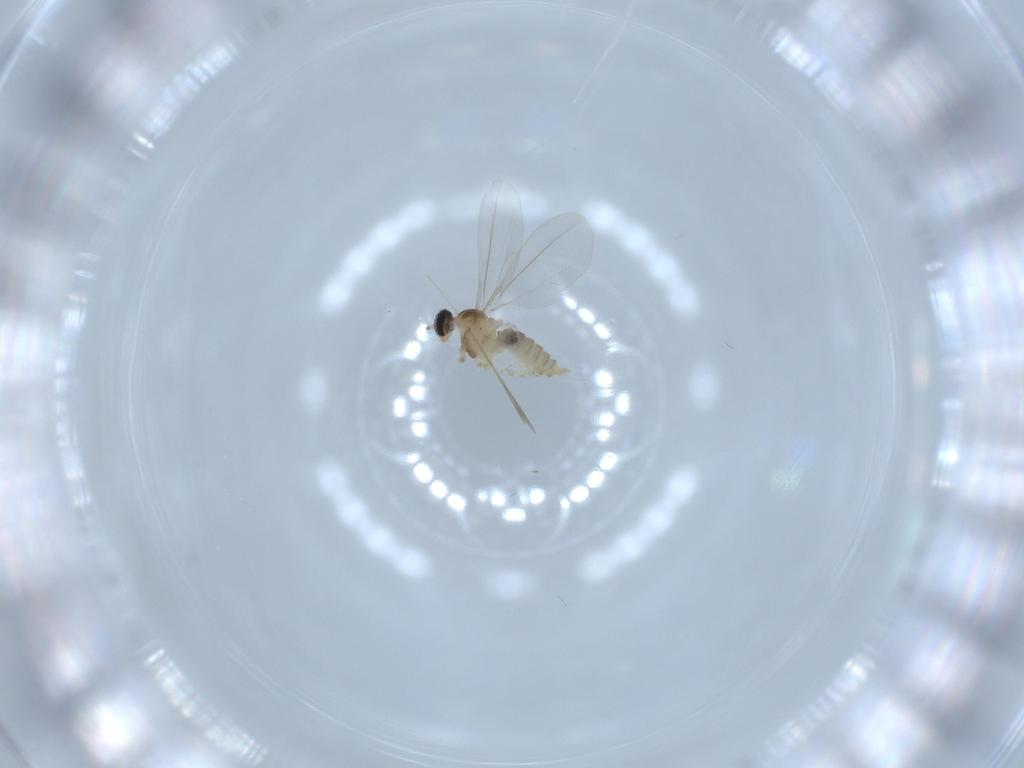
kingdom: Animalia
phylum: Arthropoda
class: Insecta
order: Diptera
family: Cecidomyiidae
